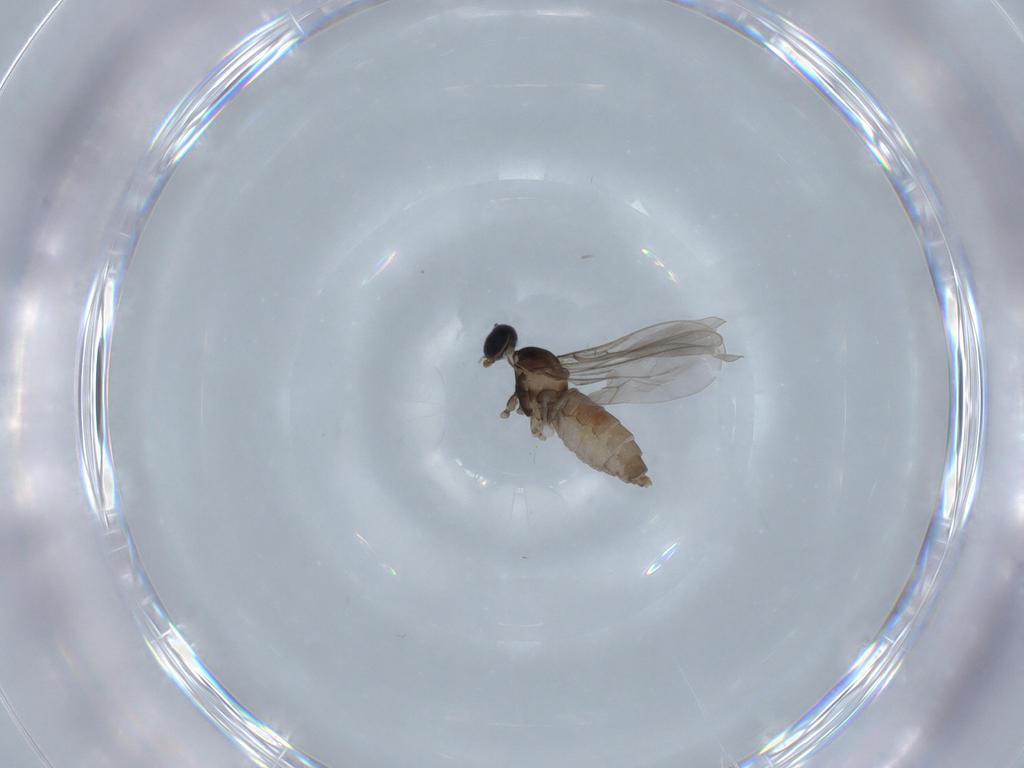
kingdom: Animalia
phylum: Arthropoda
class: Insecta
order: Diptera
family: Cecidomyiidae
